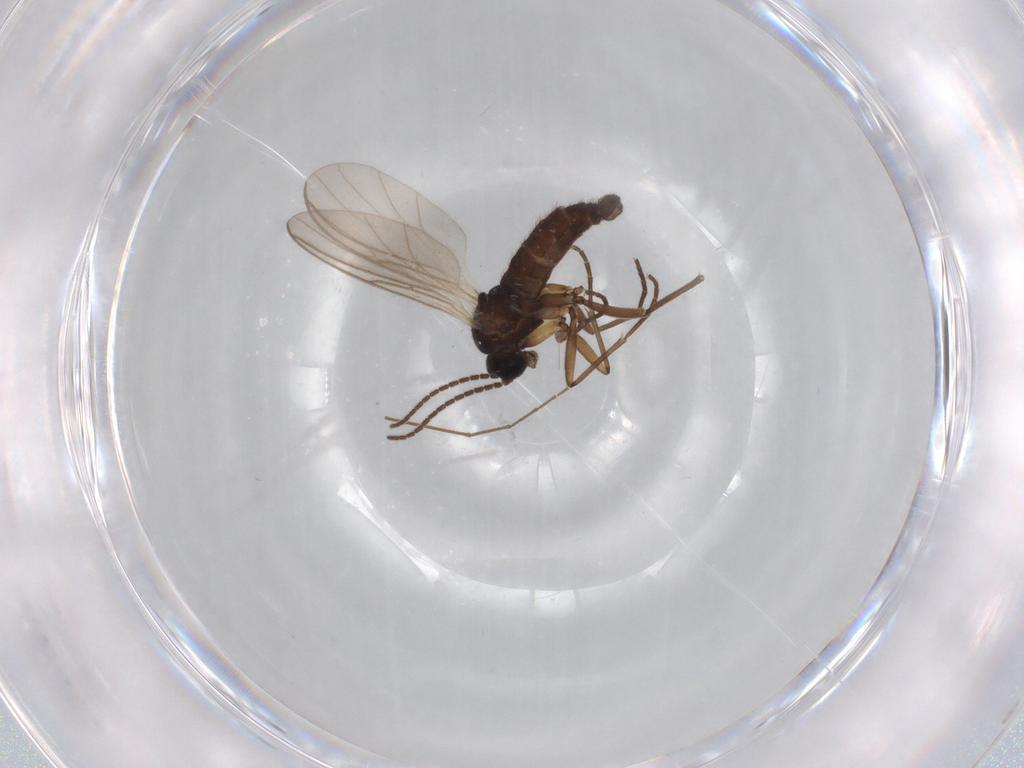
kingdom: Animalia
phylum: Arthropoda
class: Insecta
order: Diptera
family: Sciaridae
